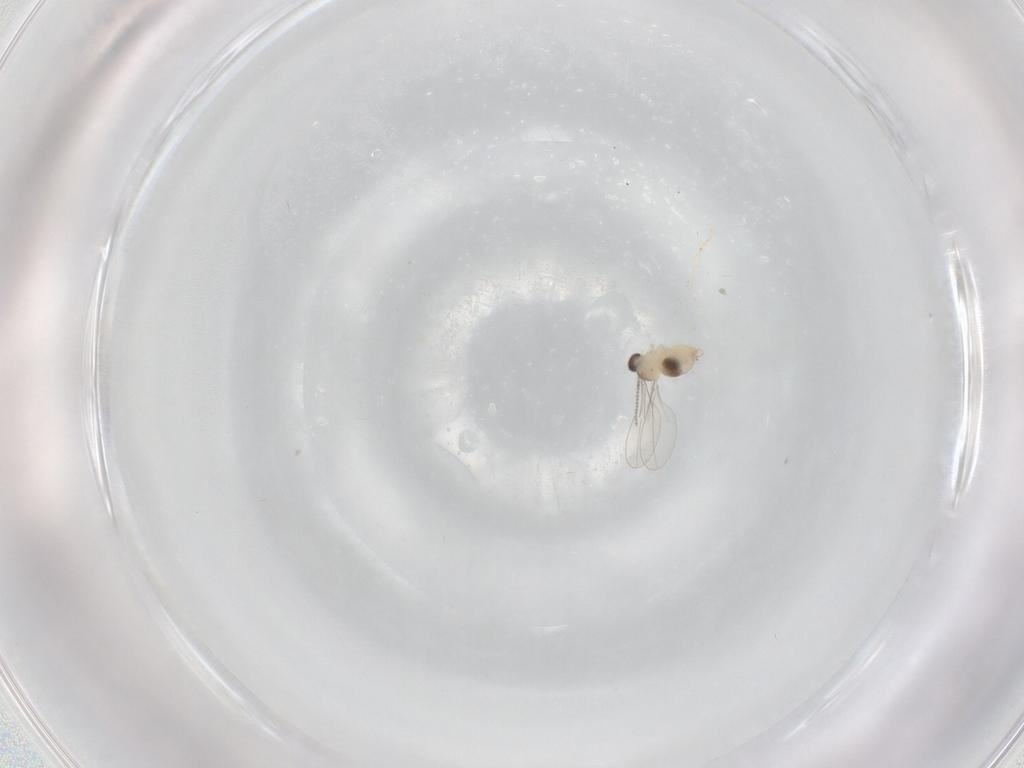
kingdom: Animalia
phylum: Arthropoda
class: Insecta
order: Diptera
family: Cecidomyiidae
